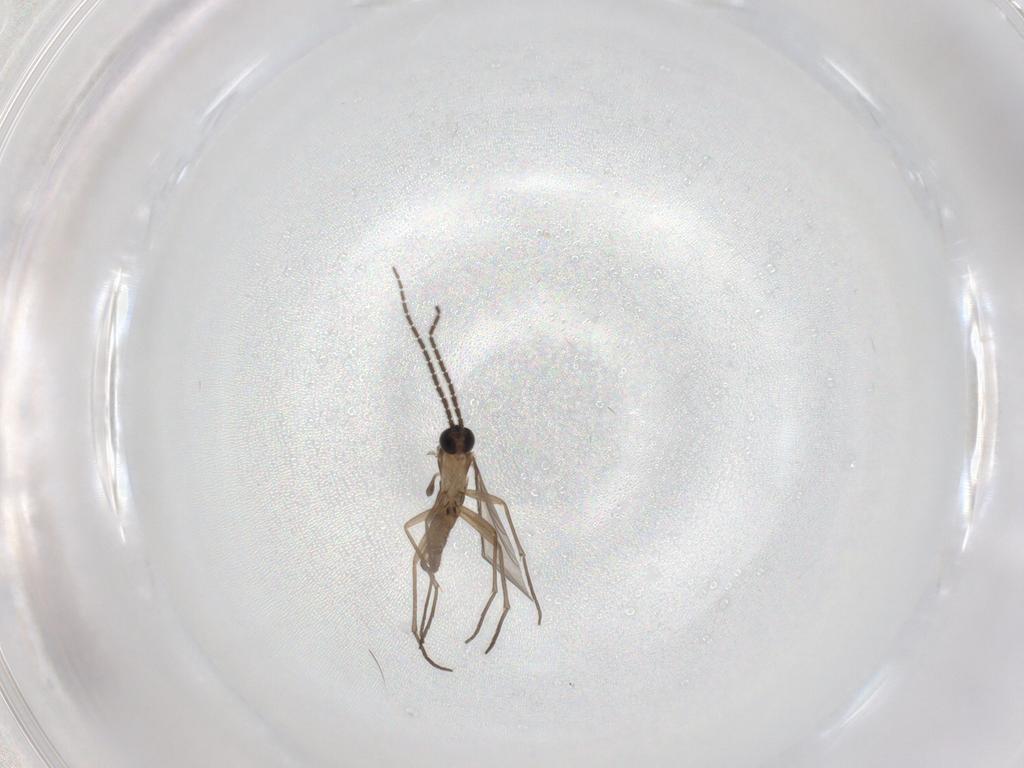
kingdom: Animalia
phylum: Arthropoda
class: Insecta
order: Diptera
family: Sciaridae
